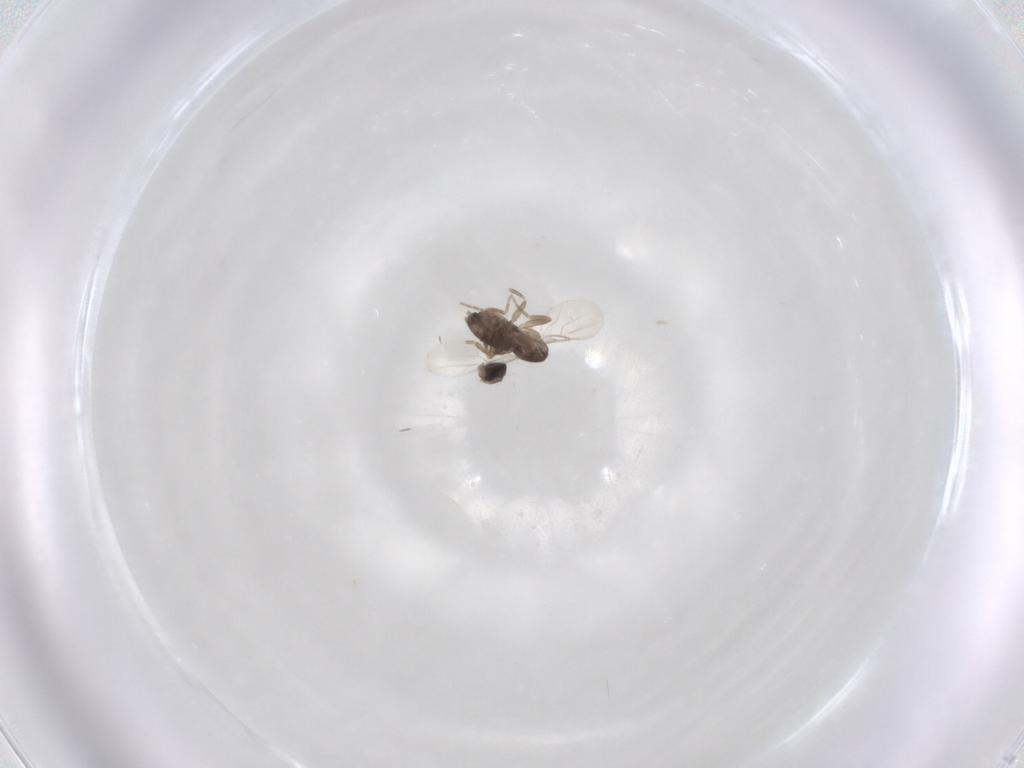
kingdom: Animalia
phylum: Arthropoda
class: Insecta
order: Diptera
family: Phoridae
